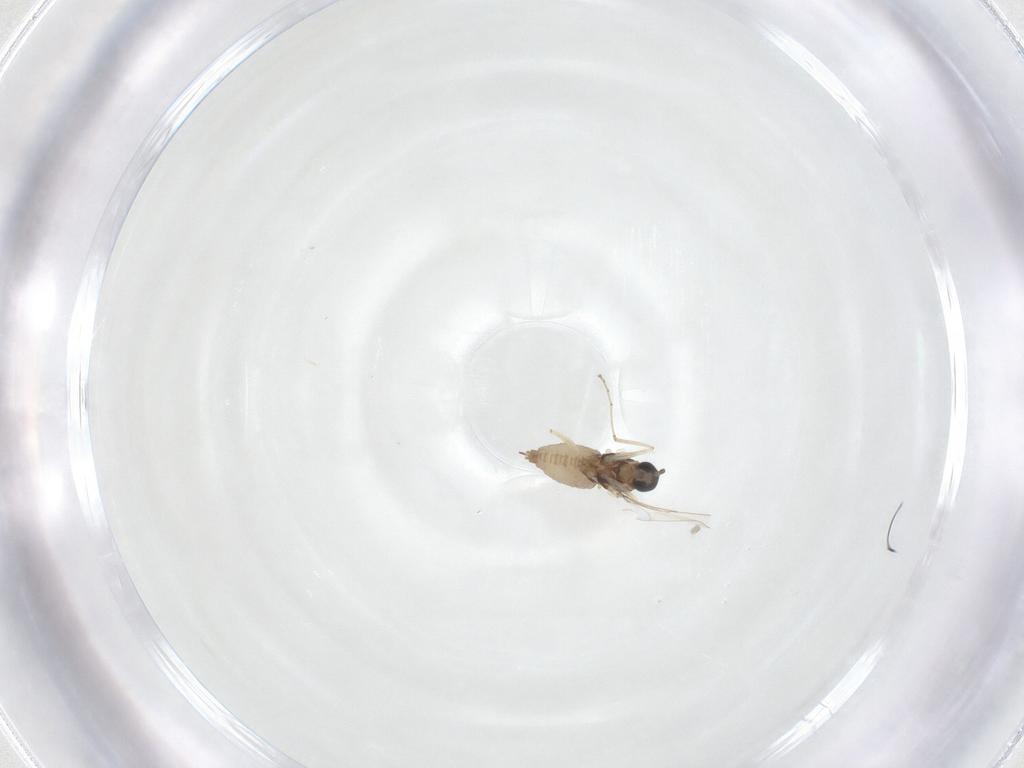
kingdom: Animalia
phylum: Arthropoda
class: Insecta
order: Diptera
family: Cecidomyiidae
